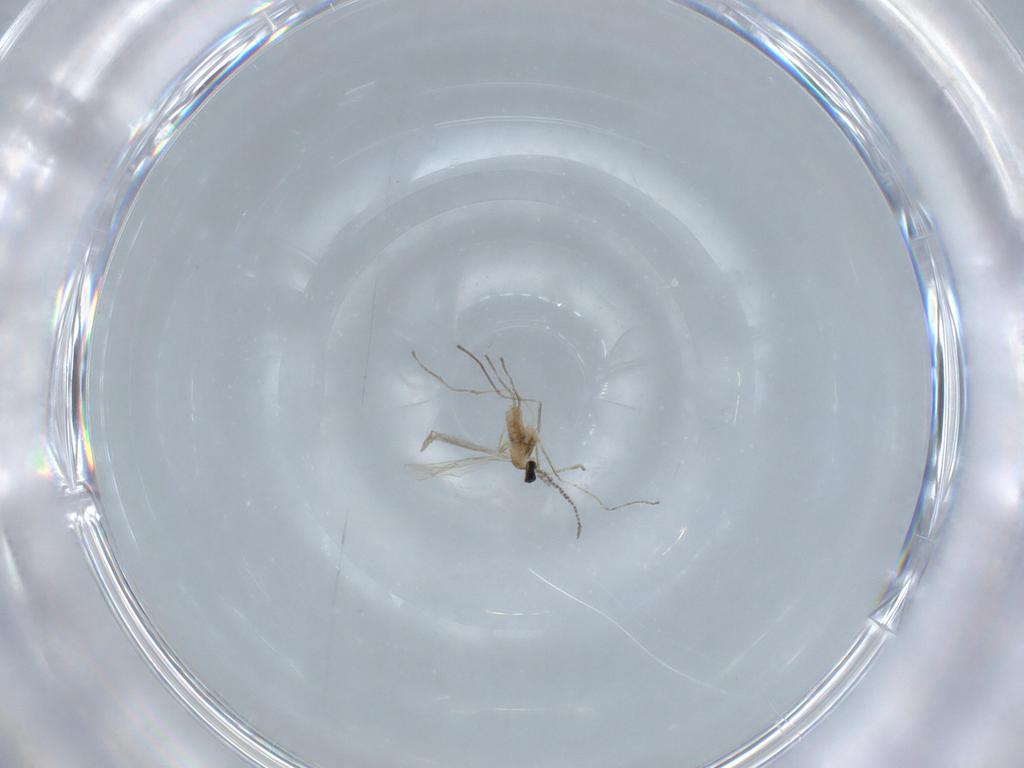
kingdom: Animalia
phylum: Arthropoda
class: Insecta
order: Diptera
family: Cecidomyiidae
